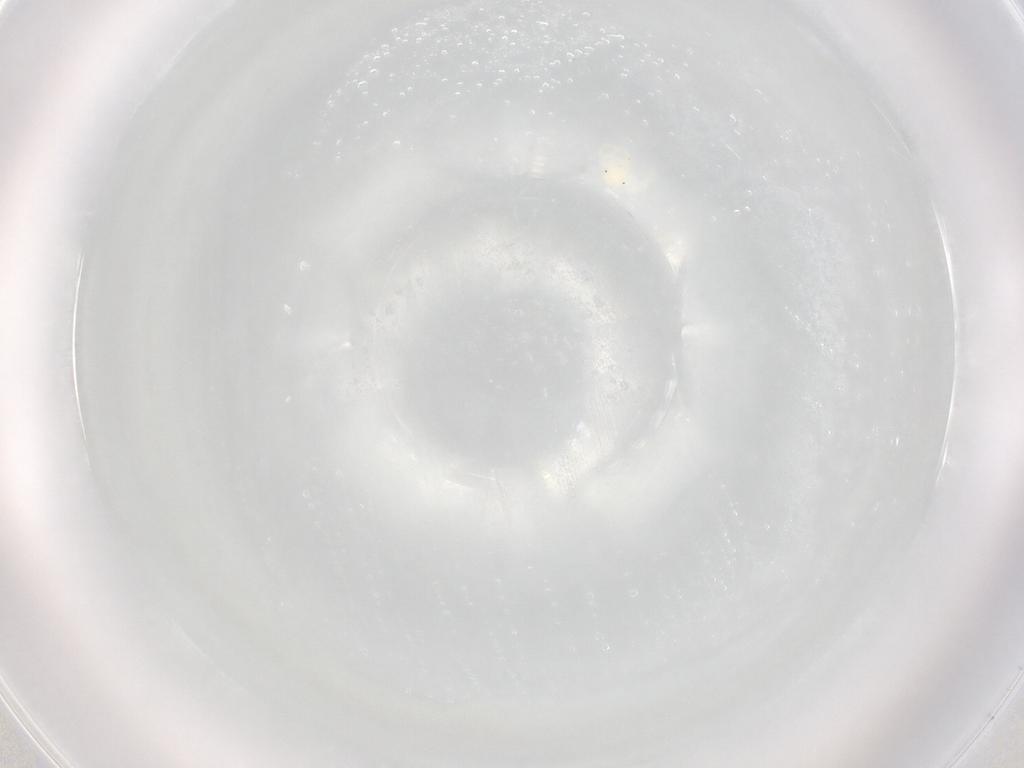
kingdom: Animalia
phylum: Arthropoda
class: Arachnida
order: Trombidiformes
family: Anystidae
